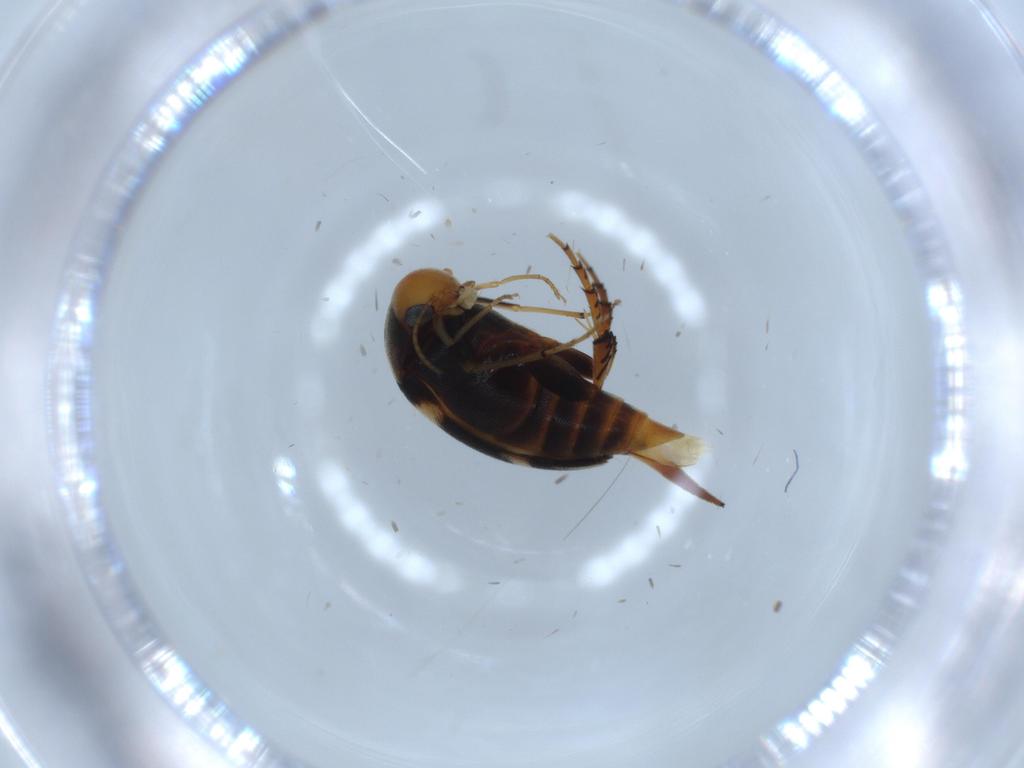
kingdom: Animalia
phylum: Arthropoda
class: Insecta
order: Coleoptera
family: Mordellidae
